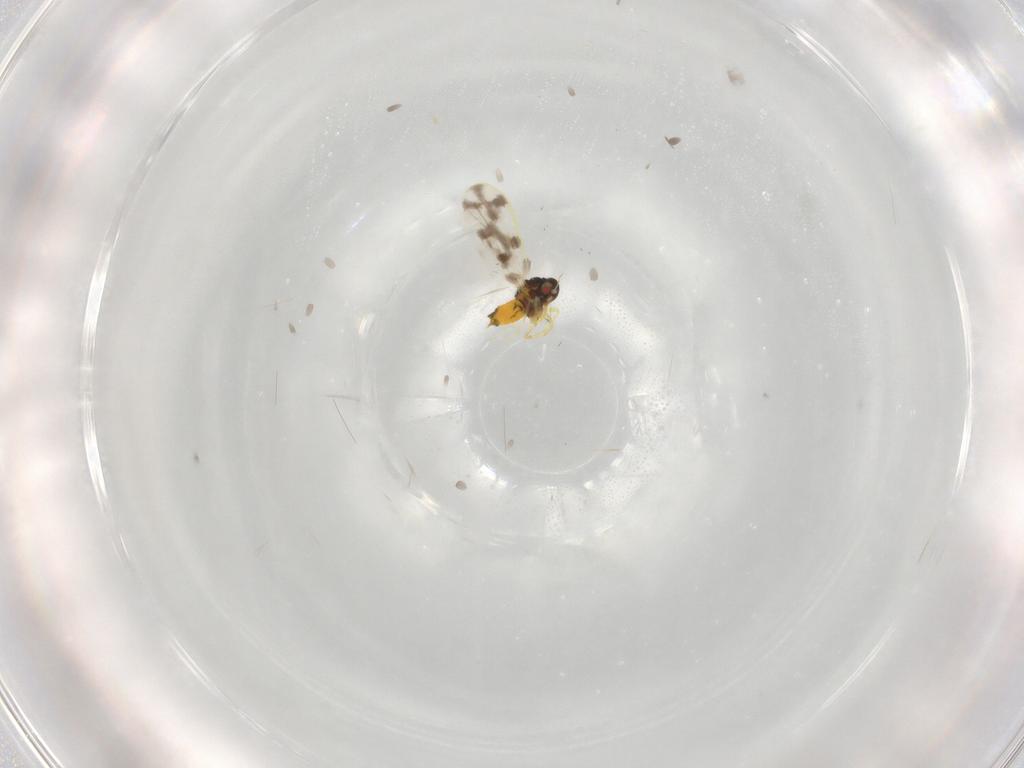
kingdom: Animalia
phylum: Arthropoda
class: Insecta
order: Hemiptera
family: Aleyrodidae
